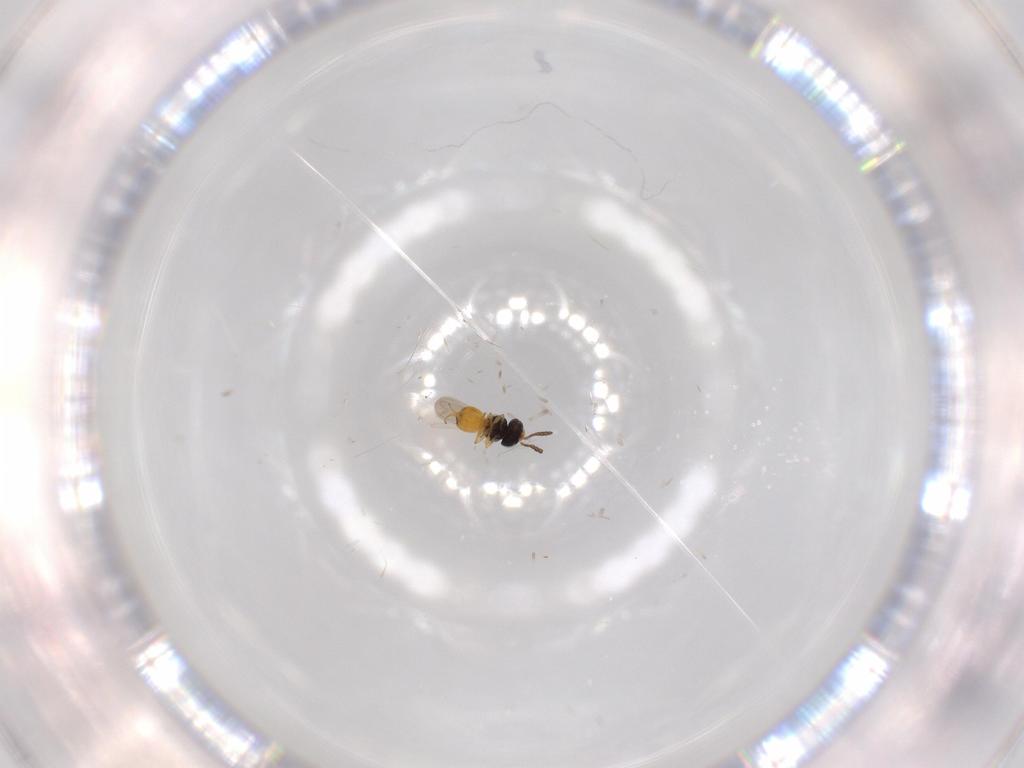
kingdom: Animalia
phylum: Arthropoda
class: Insecta
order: Hymenoptera
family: Scelionidae
